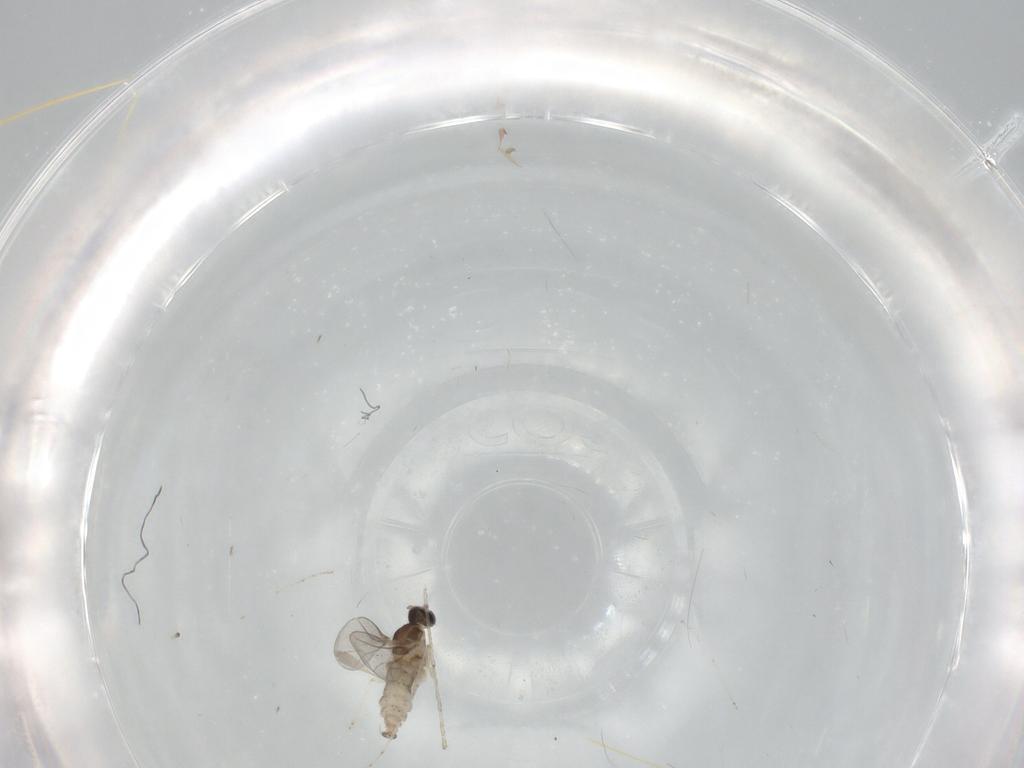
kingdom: Animalia
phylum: Arthropoda
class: Insecta
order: Diptera
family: Cecidomyiidae
